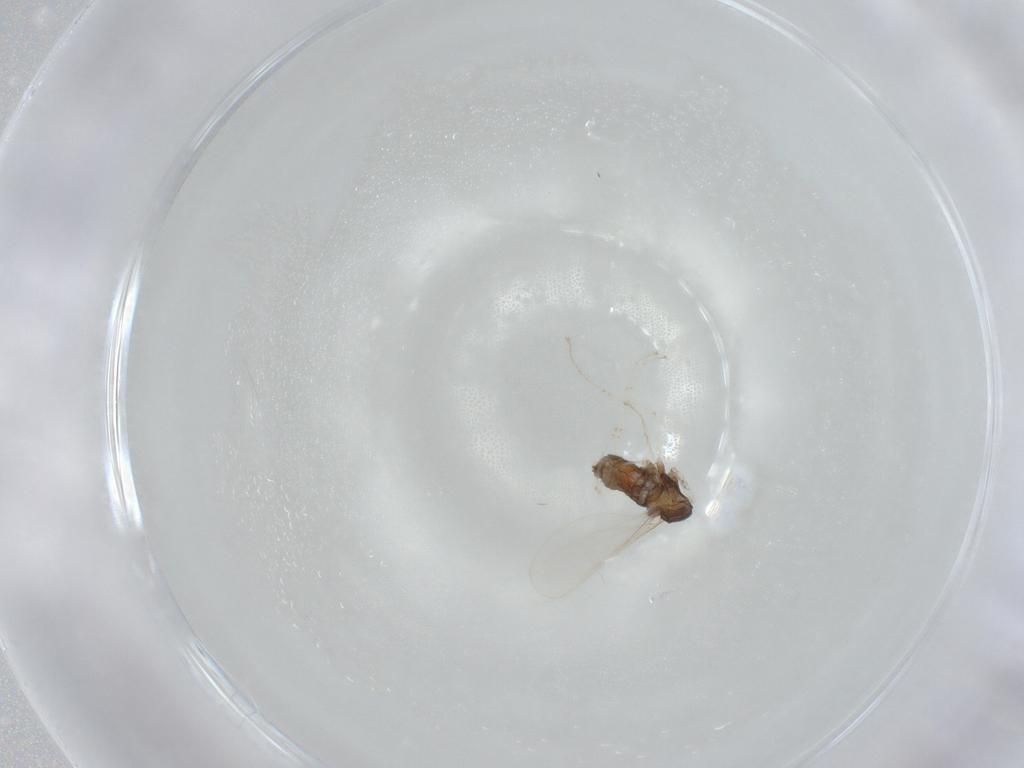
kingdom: Animalia
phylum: Arthropoda
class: Insecta
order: Diptera
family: Cecidomyiidae
